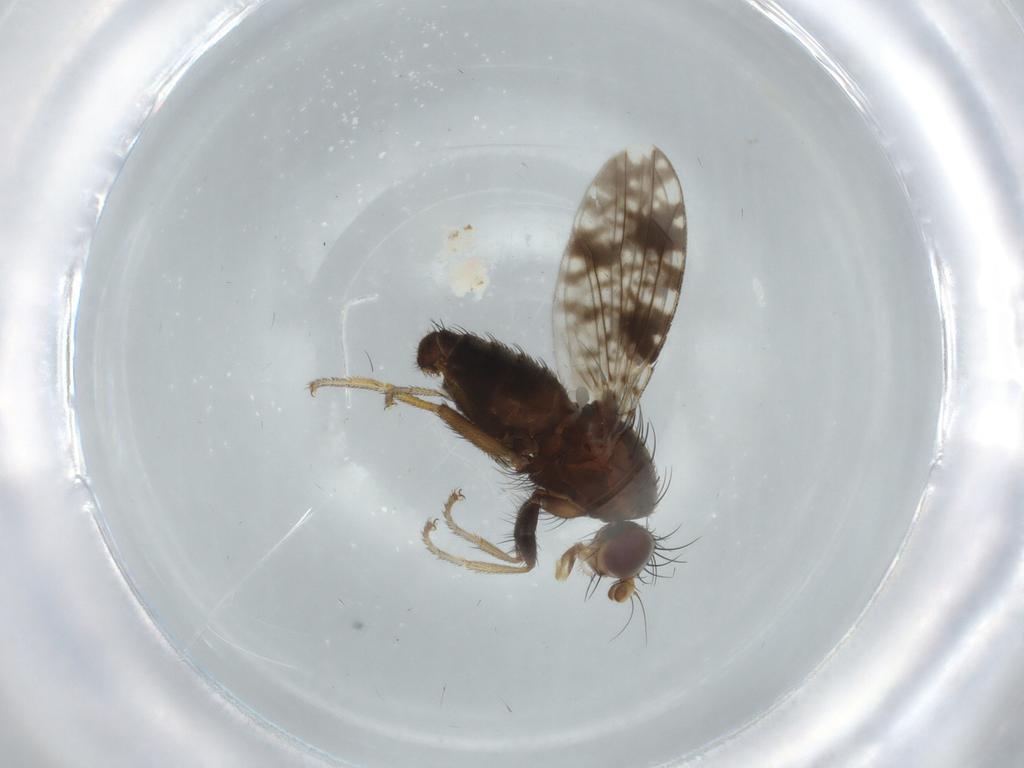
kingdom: Animalia
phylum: Arthropoda
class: Insecta
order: Diptera
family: Tephritidae
